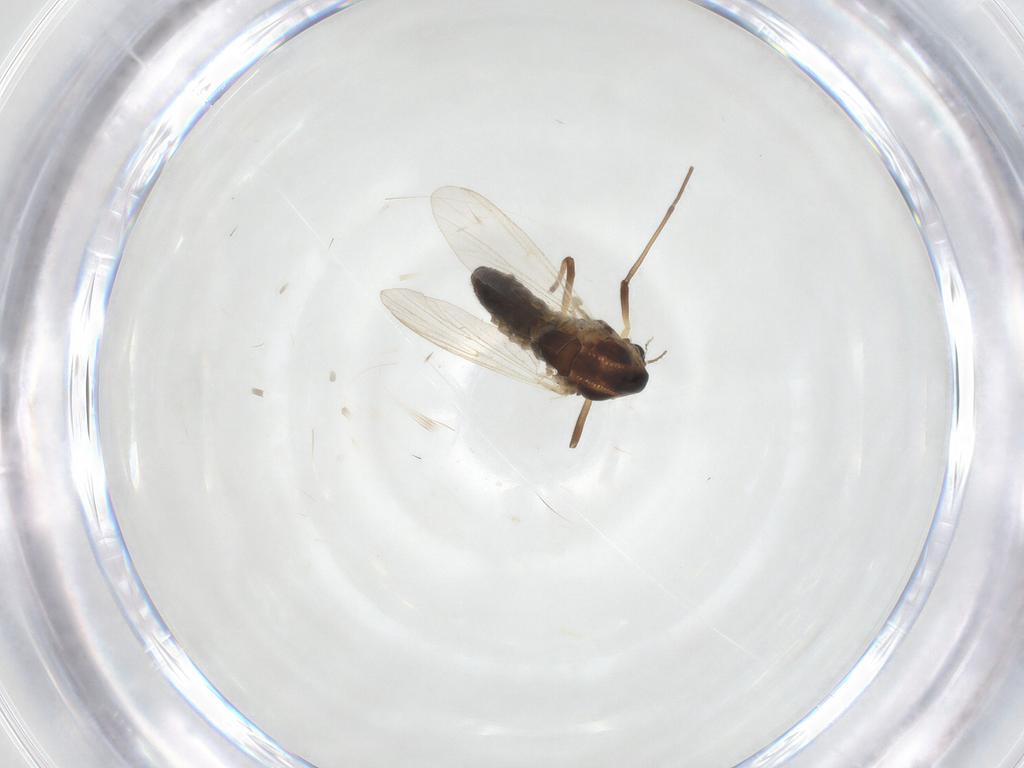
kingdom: Animalia
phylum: Arthropoda
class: Insecta
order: Diptera
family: Chironomidae
